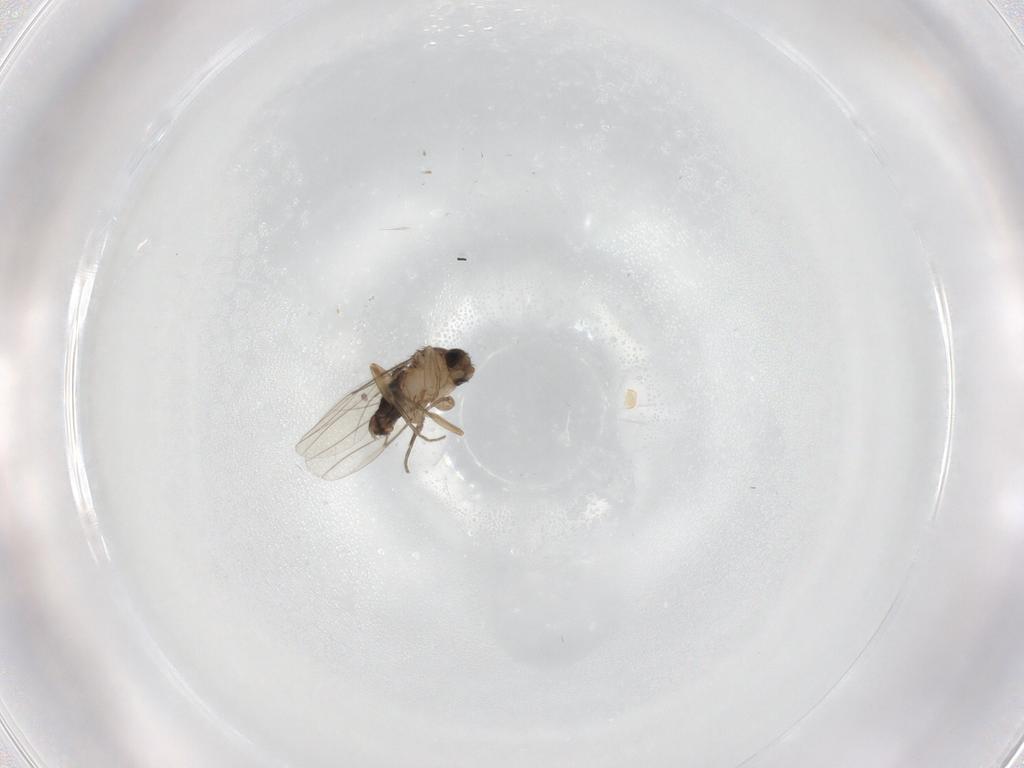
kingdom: Animalia
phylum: Arthropoda
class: Insecta
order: Diptera
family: Phoridae
